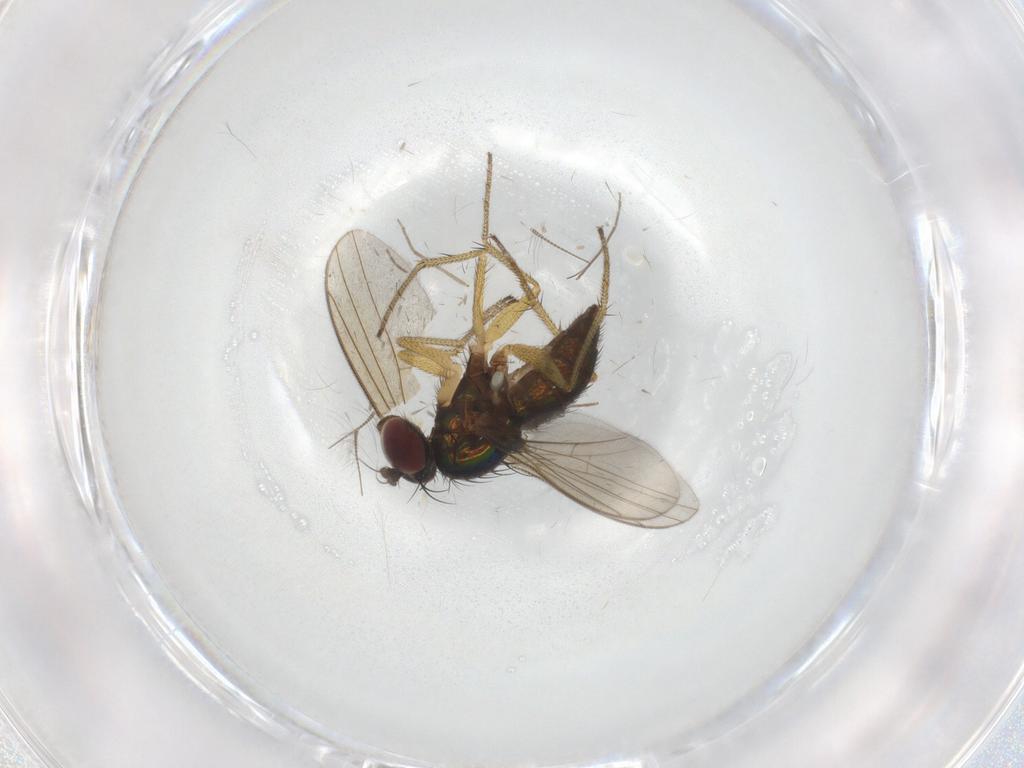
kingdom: Animalia
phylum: Arthropoda
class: Insecta
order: Diptera
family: Chironomidae
